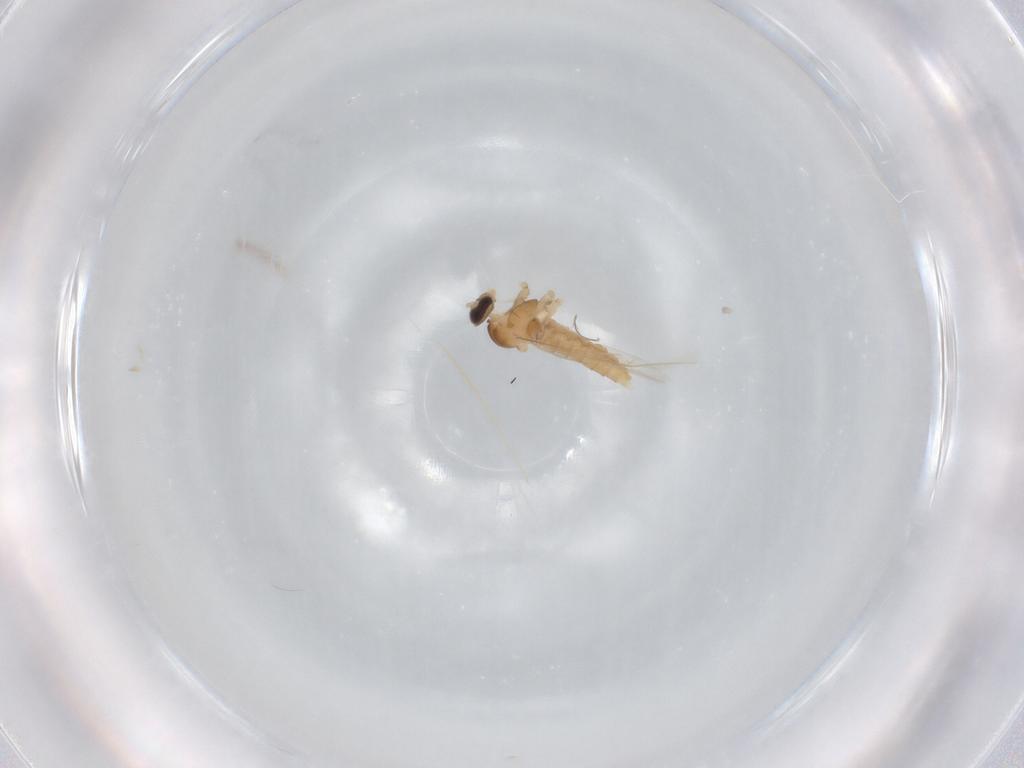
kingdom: Animalia
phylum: Arthropoda
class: Insecta
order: Diptera
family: Cecidomyiidae
